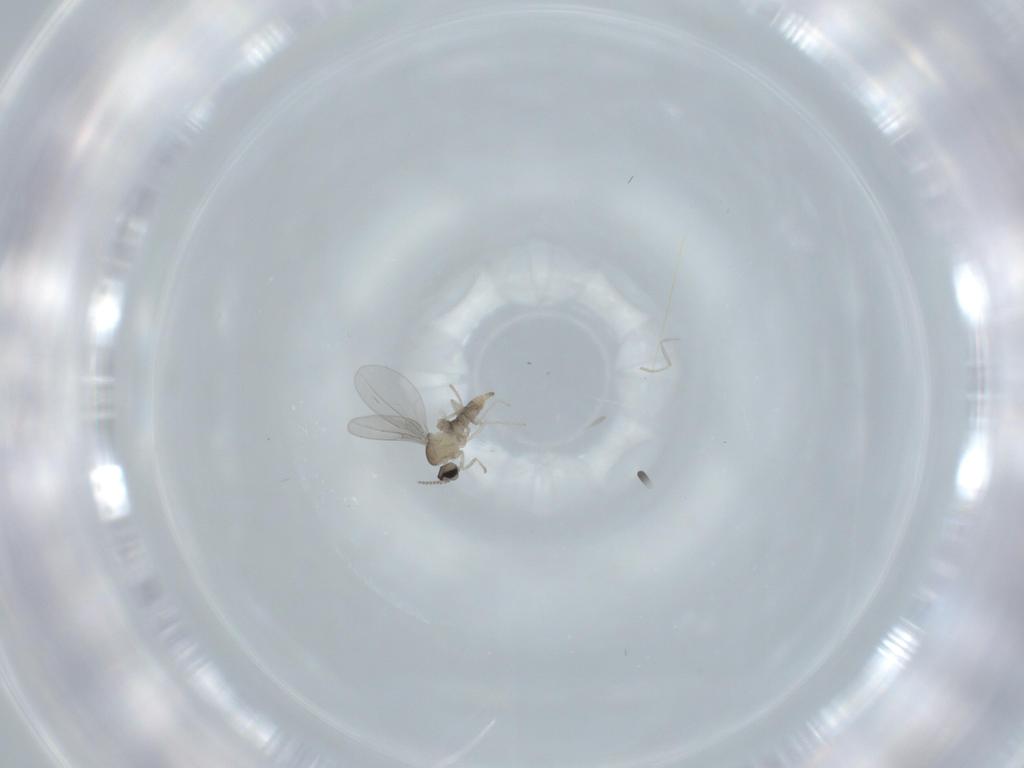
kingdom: Animalia
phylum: Arthropoda
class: Insecta
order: Diptera
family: Cecidomyiidae
